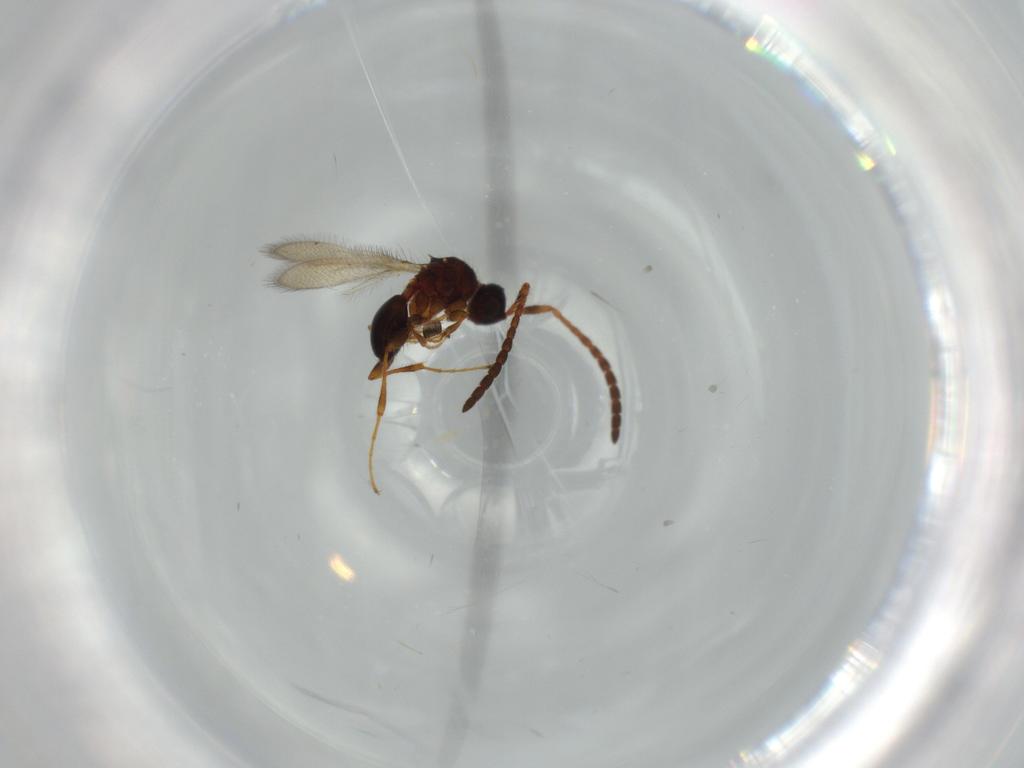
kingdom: Animalia
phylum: Arthropoda
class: Insecta
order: Hymenoptera
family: Diapriidae
